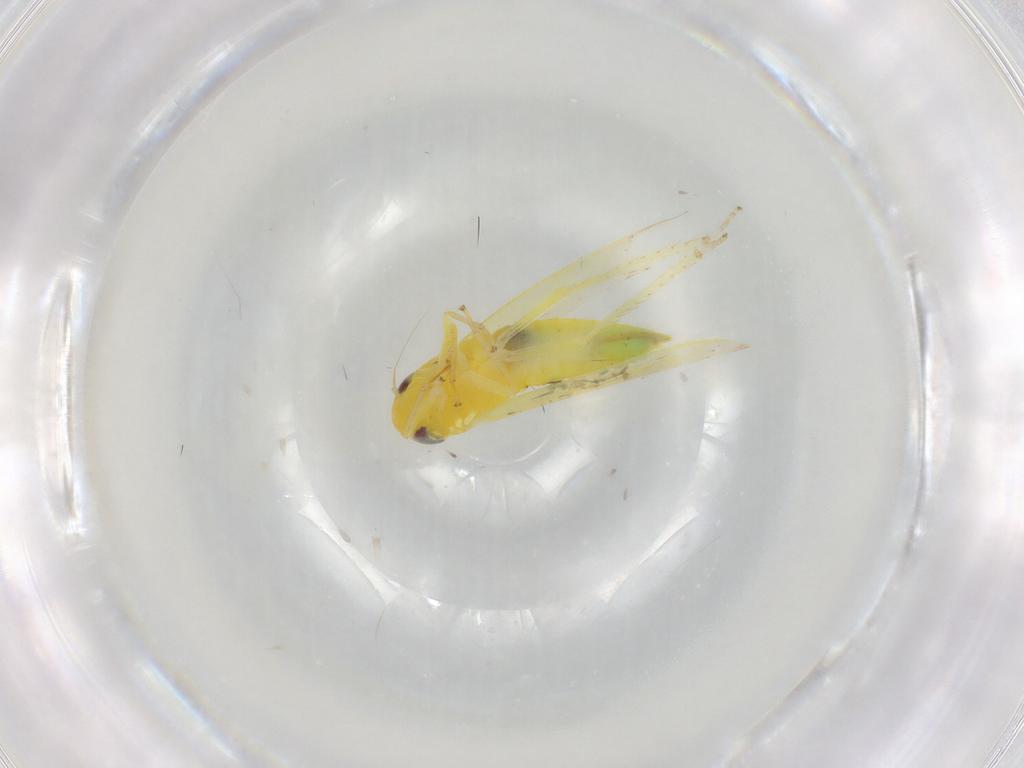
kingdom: Animalia
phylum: Arthropoda
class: Insecta
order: Hemiptera
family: Cicadellidae
